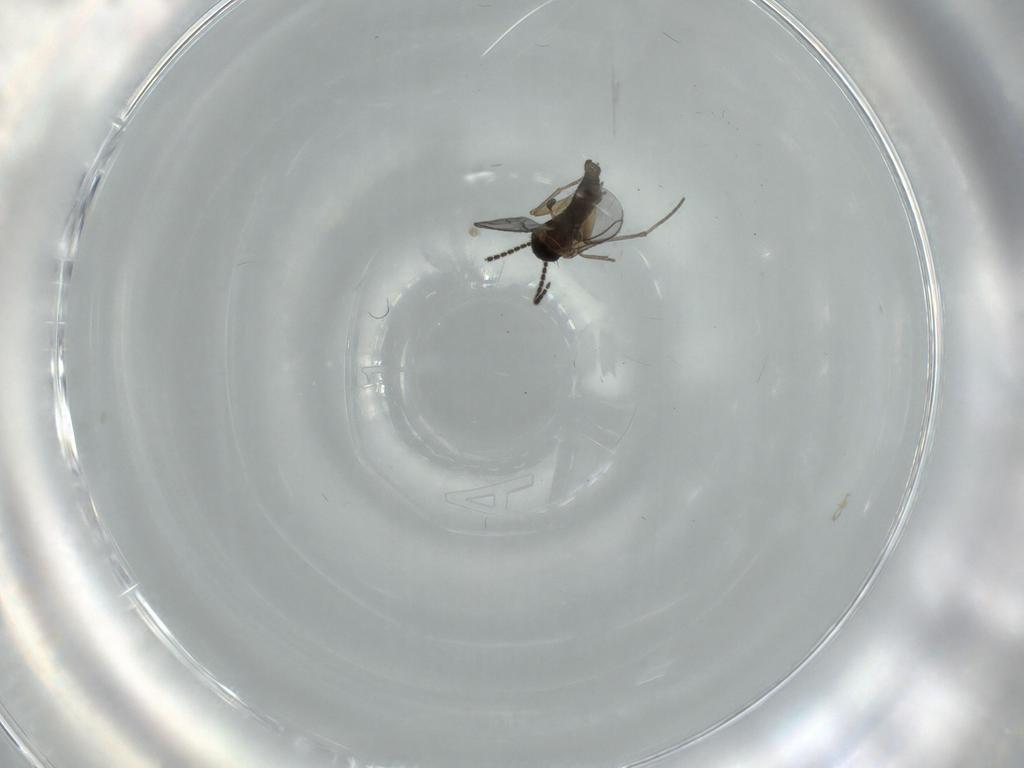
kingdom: Animalia
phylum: Arthropoda
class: Insecta
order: Diptera
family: Sciaridae
